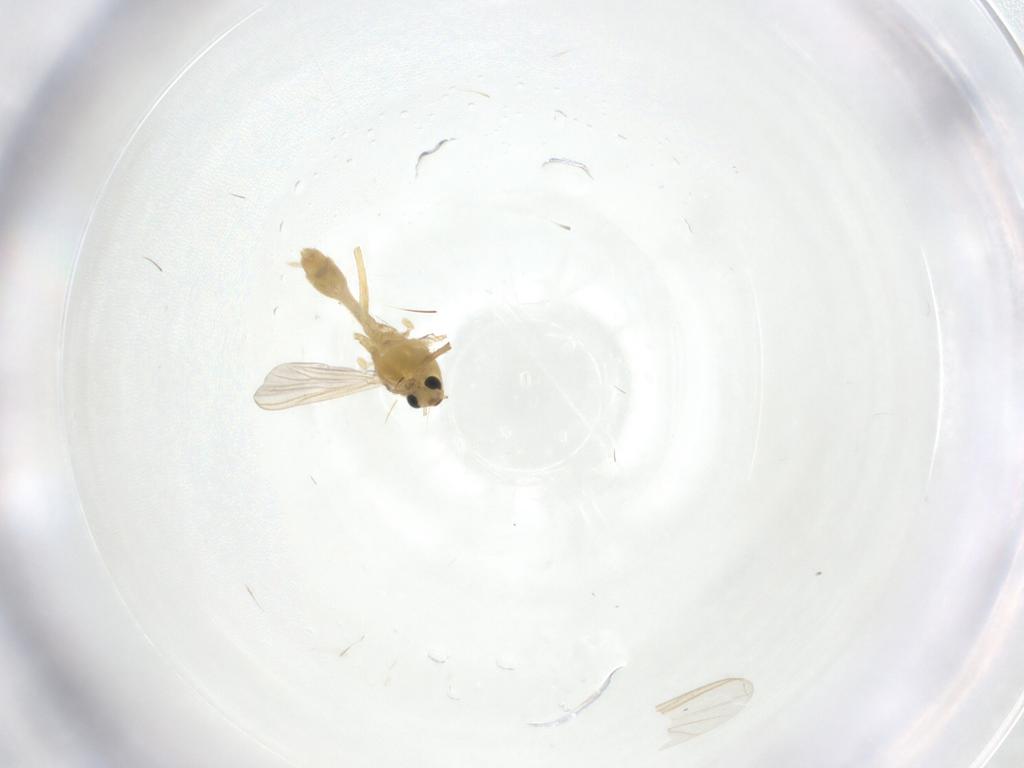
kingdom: Animalia
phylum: Arthropoda
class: Insecta
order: Diptera
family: Chironomidae
